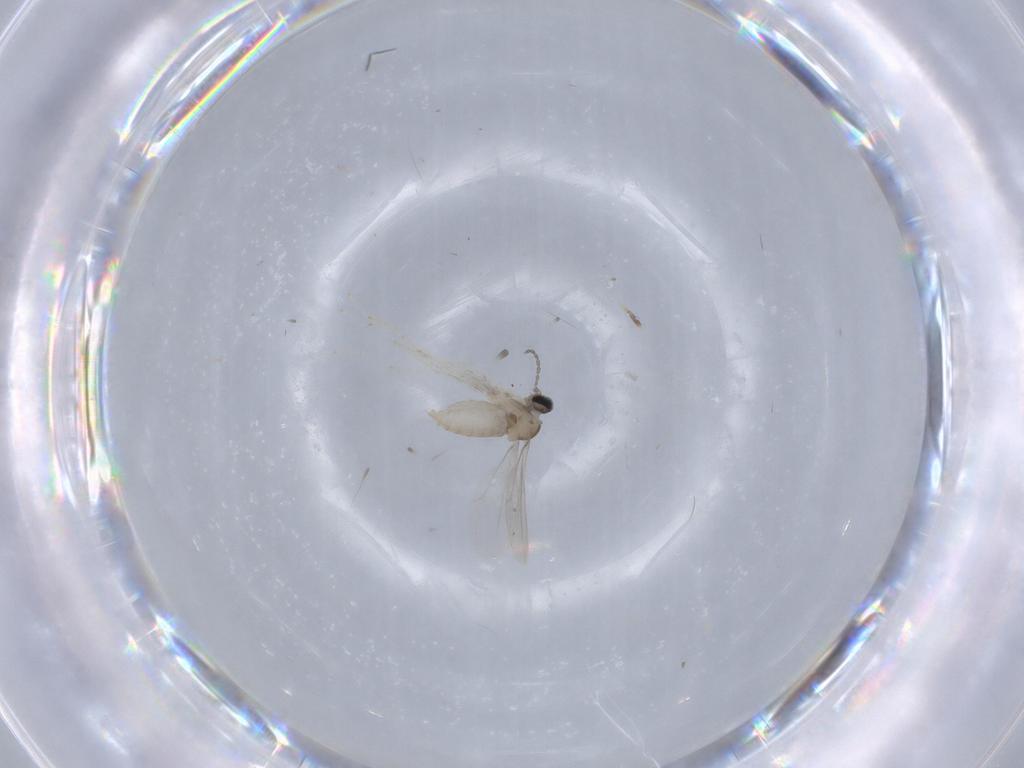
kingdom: Animalia
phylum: Arthropoda
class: Insecta
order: Diptera
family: Cecidomyiidae
